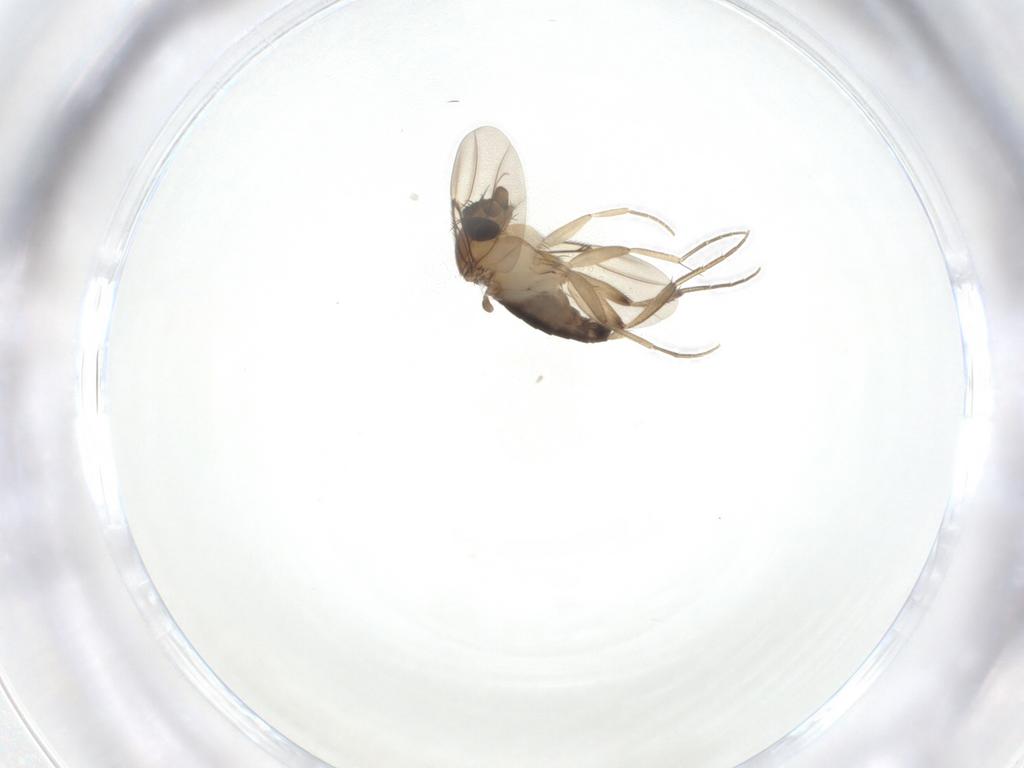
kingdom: Animalia
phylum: Arthropoda
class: Insecta
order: Diptera
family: Phoridae
